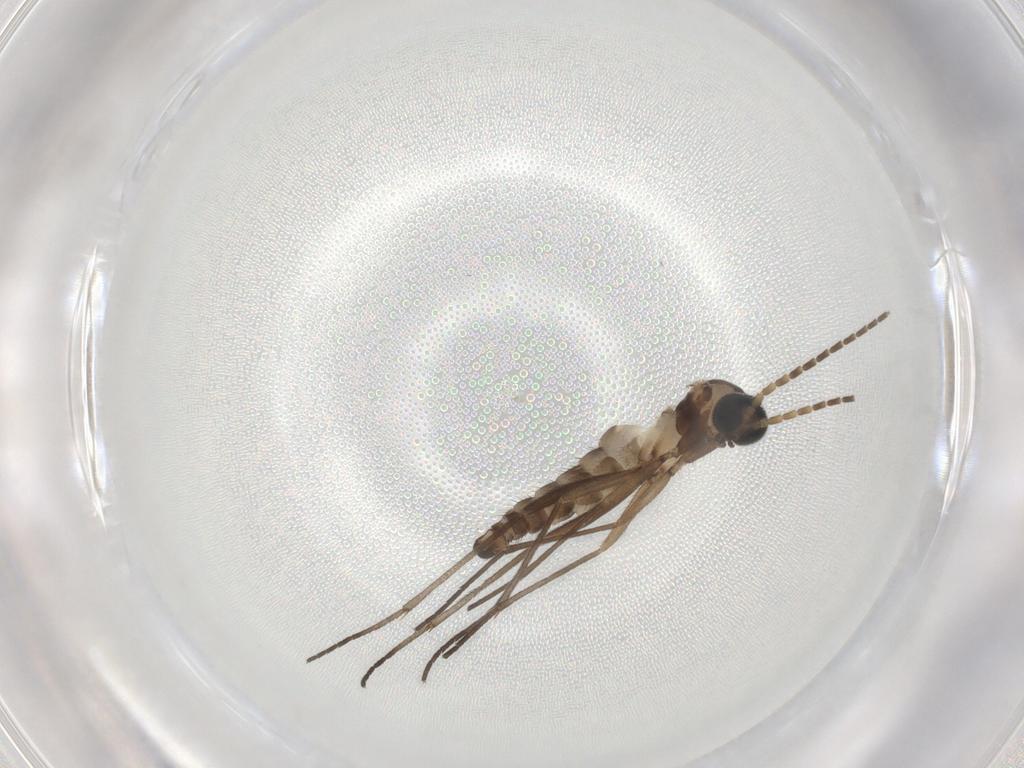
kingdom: Animalia
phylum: Arthropoda
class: Insecta
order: Diptera
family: Sciaridae
